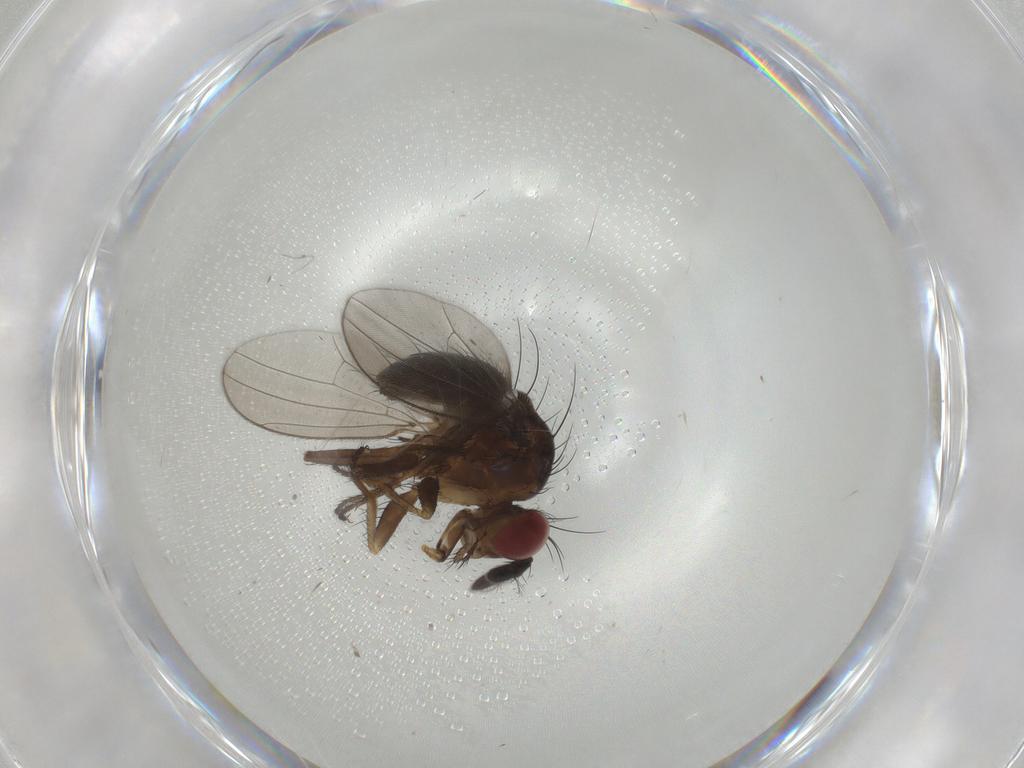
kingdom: Animalia
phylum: Arthropoda
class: Insecta
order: Diptera
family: Ephydridae
